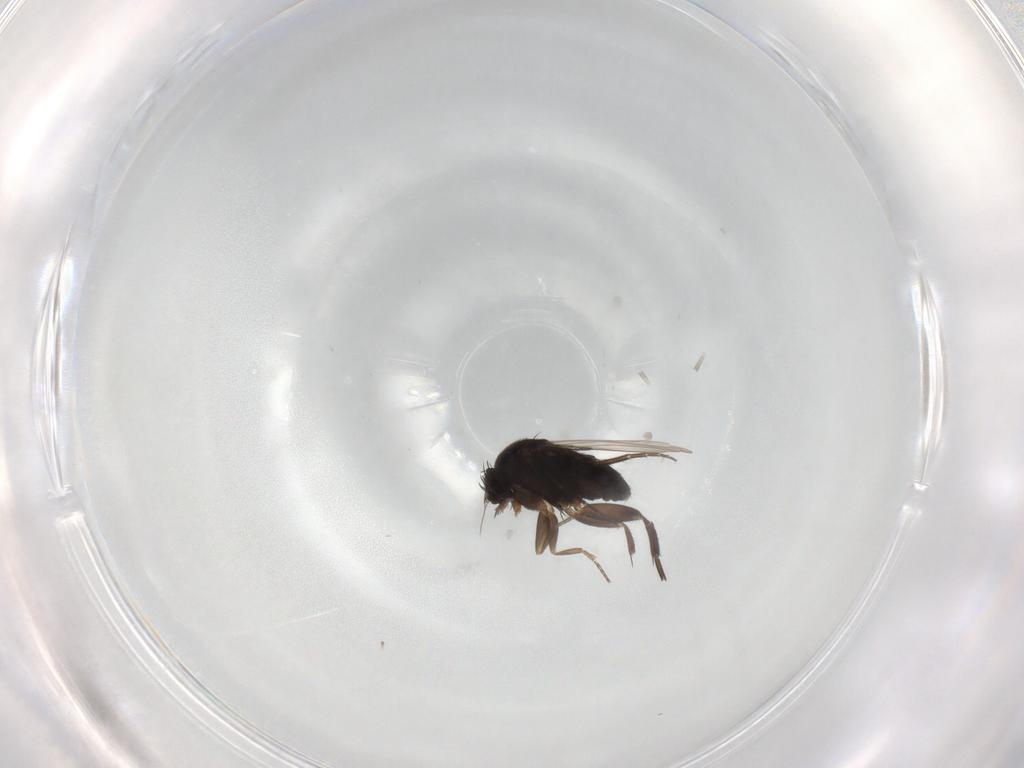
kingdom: Animalia
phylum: Arthropoda
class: Insecta
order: Diptera
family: Phoridae
